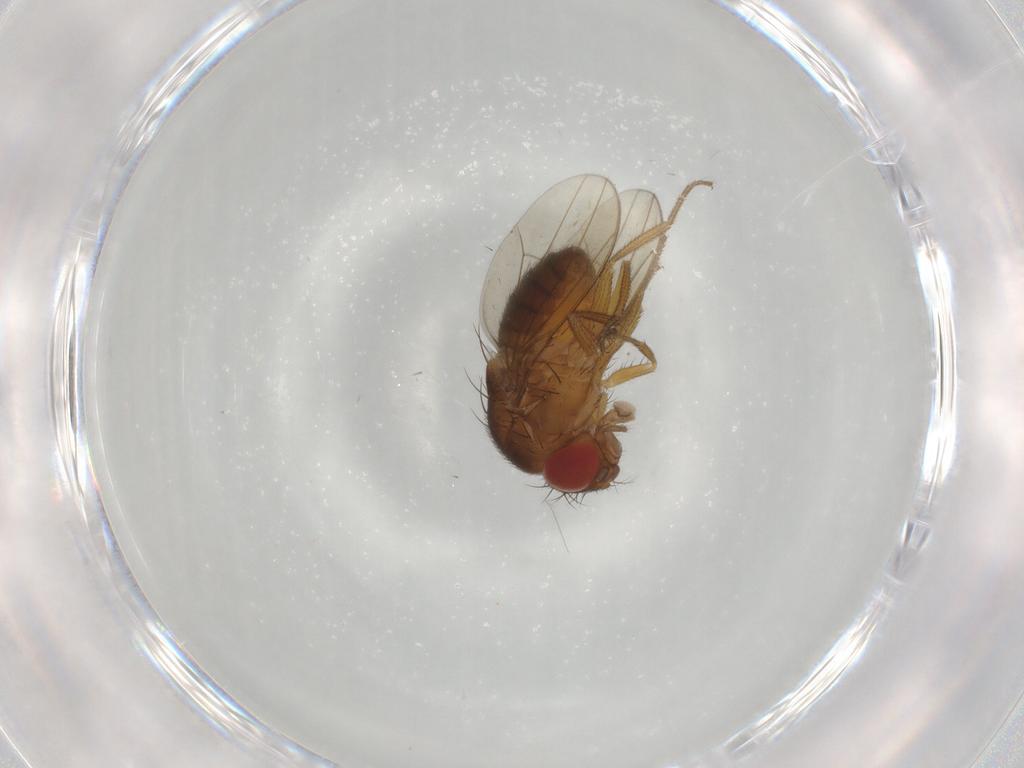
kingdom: Animalia
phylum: Arthropoda
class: Insecta
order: Diptera
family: Drosophilidae
